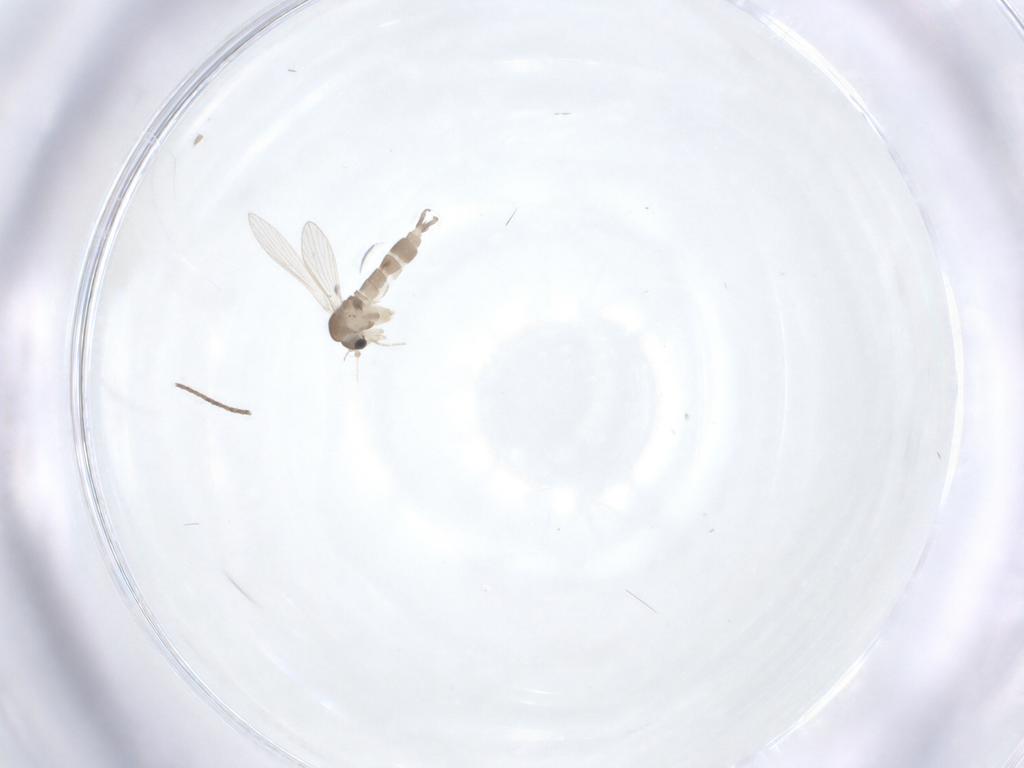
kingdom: Animalia
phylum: Arthropoda
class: Insecta
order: Diptera
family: Psychodidae
